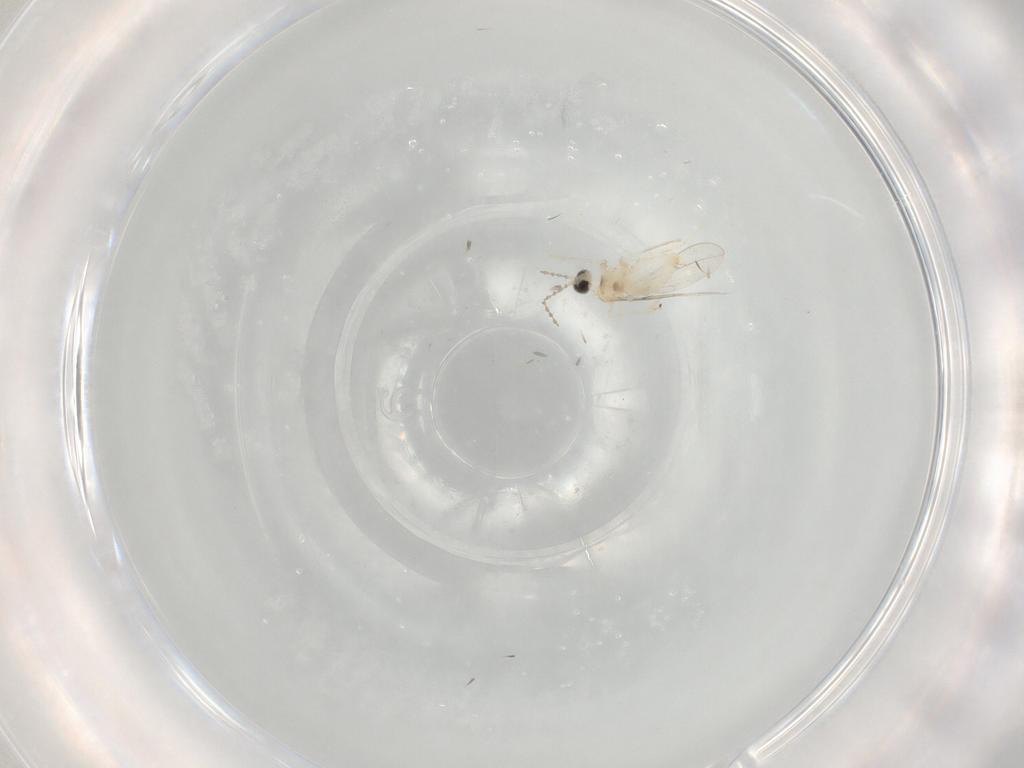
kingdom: Animalia
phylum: Arthropoda
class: Insecta
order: Diptera
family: Cecidomyiidae
